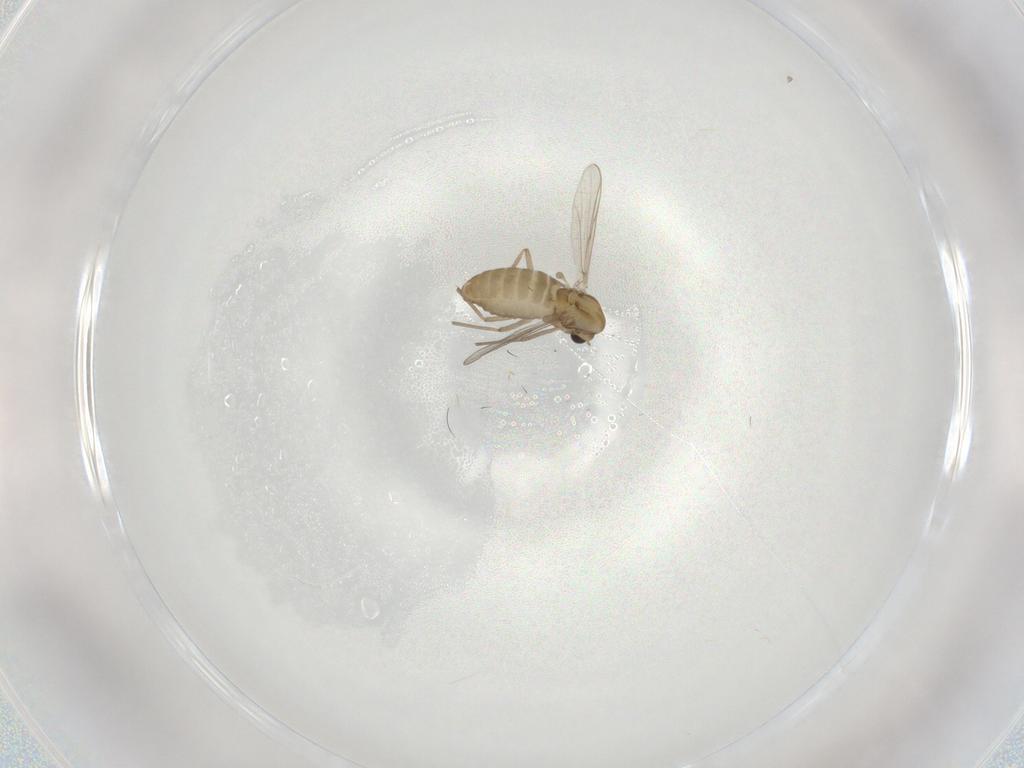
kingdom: Animalia
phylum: Arthropoda
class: Insecta
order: Diptera
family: Chironomidae
